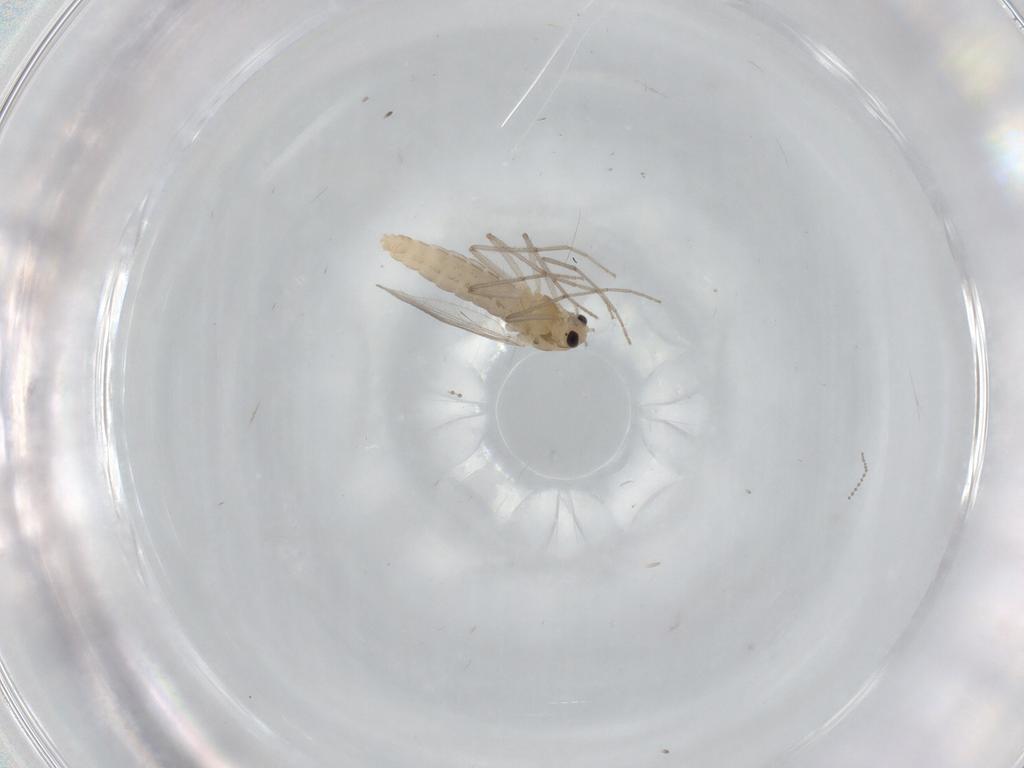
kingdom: Animalia
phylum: Arthropoda
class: Insecta
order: Diptera
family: Chironomidae
